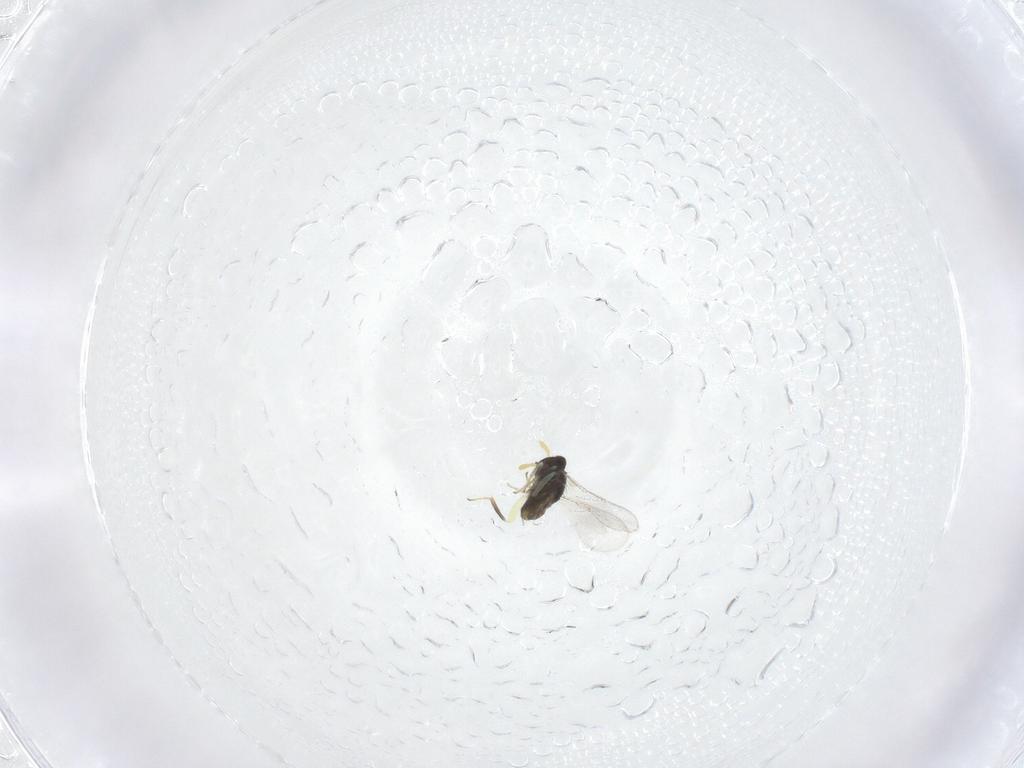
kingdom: Animalia
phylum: Arthropoda
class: Insecta
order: Hymenoptera
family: Aphelinidae
